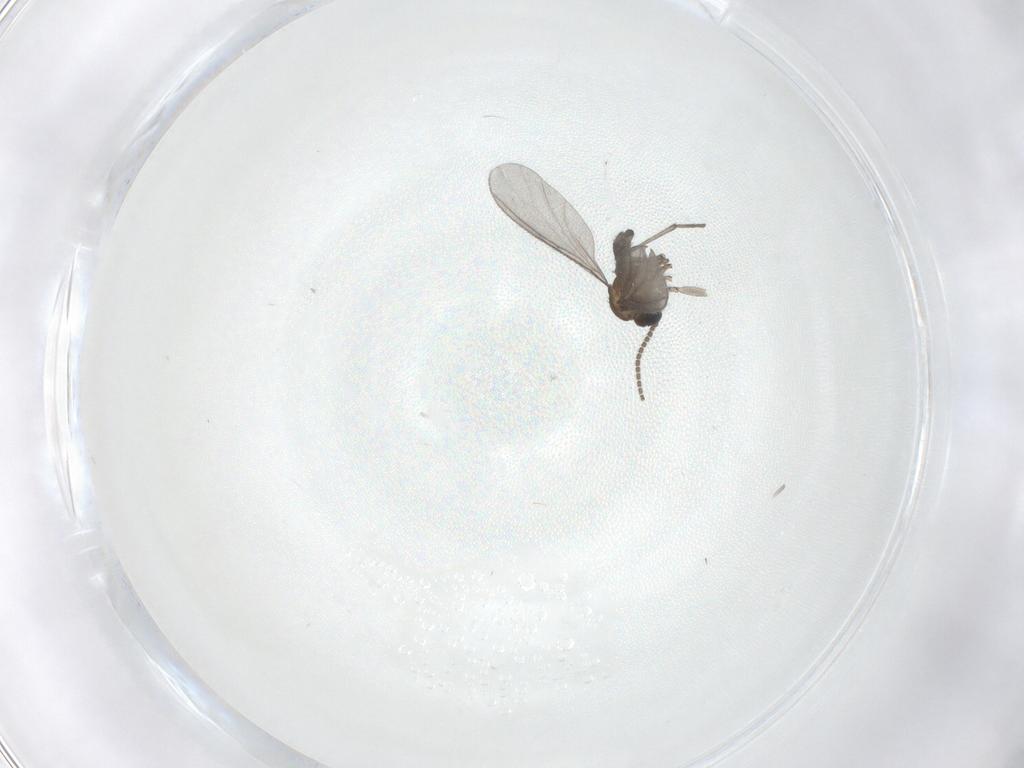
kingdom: Animalia
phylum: Arthropoda
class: Insecta
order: Diptera
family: Sciaridae
